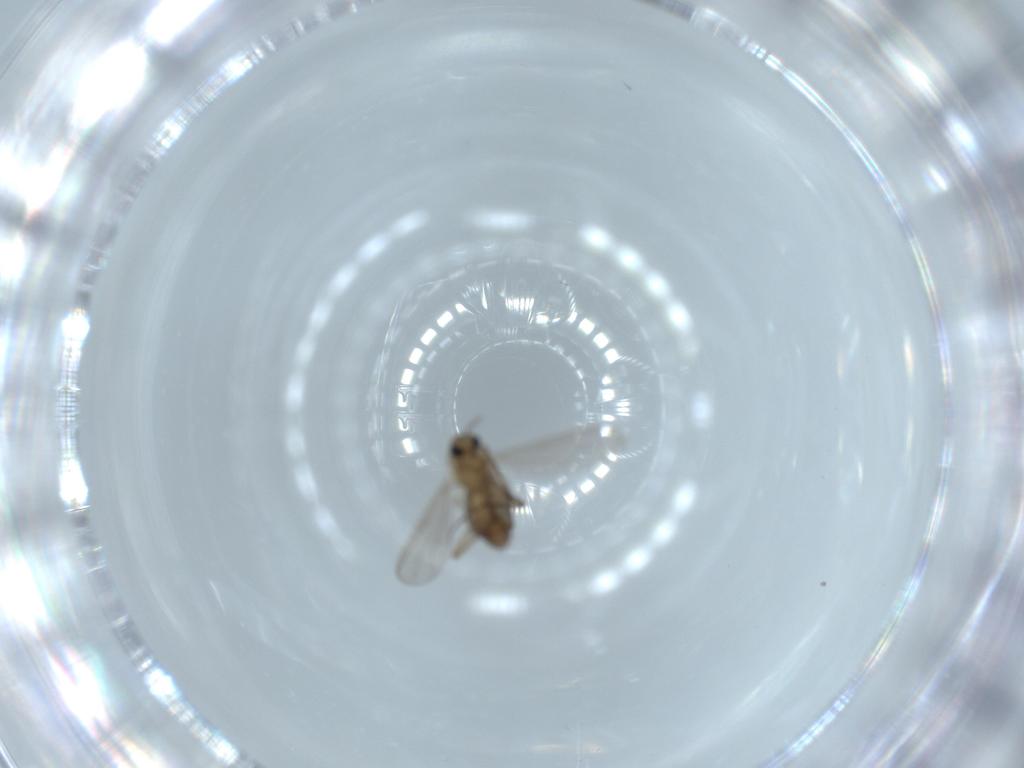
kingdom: Animalia
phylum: Arthropoda
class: Insecta
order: Diptera
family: Chironomidae
